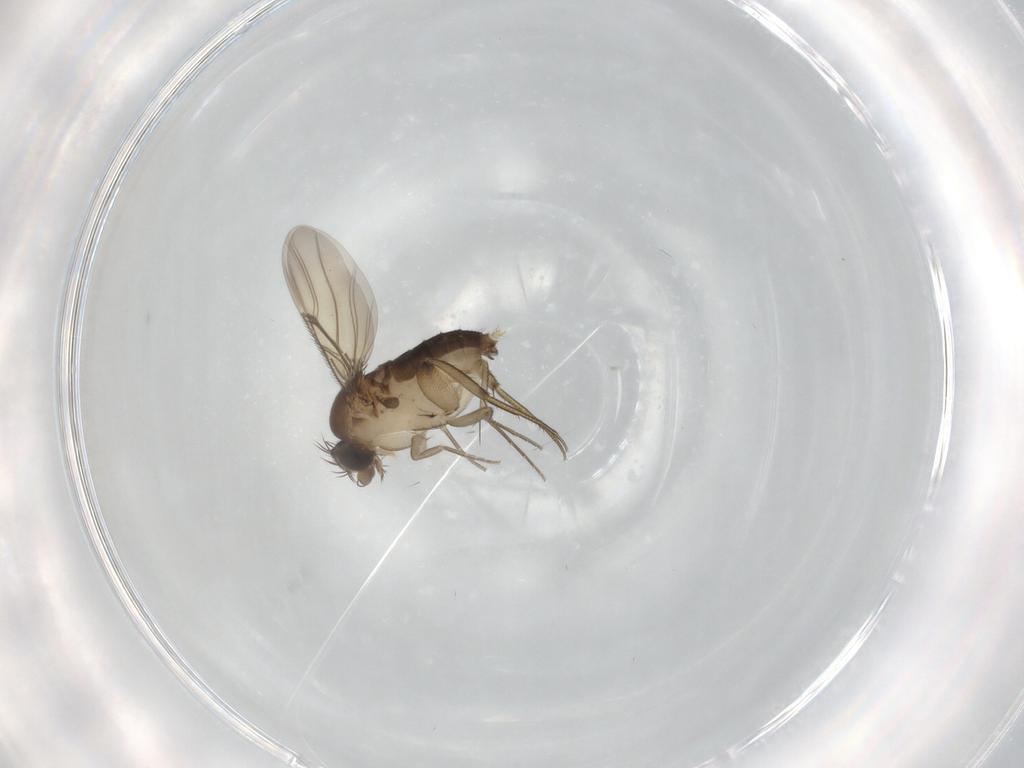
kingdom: Animalia
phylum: Arthropoda
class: Insecta
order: Diptera
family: Phoridae
